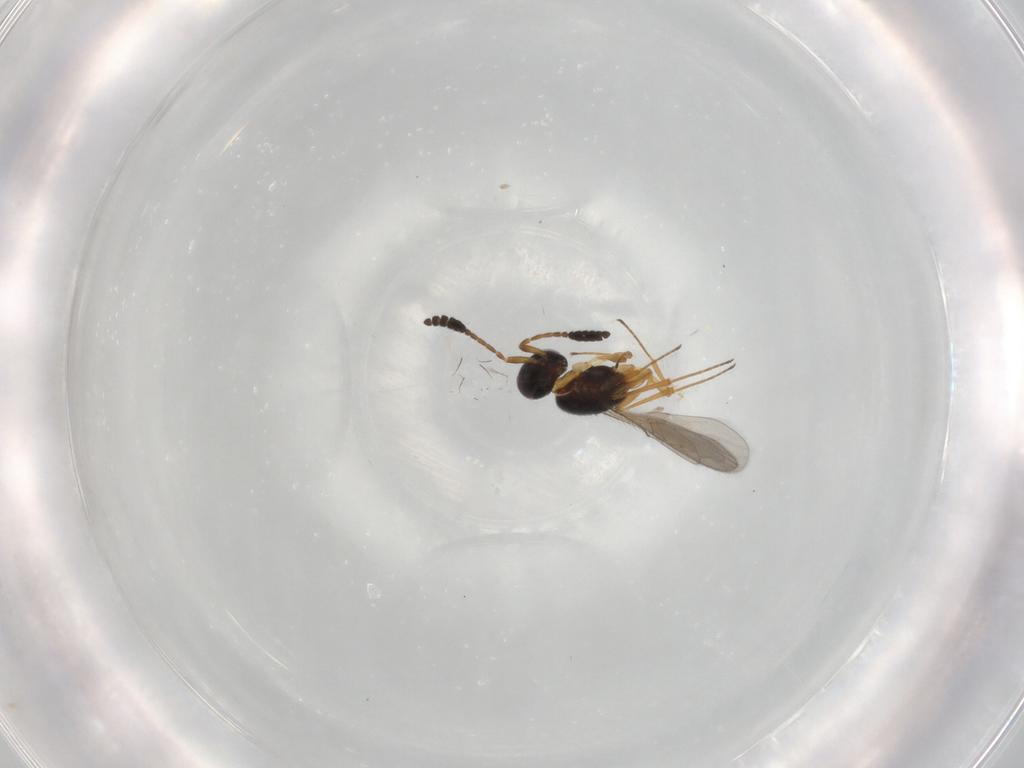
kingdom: Animalia
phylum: Arthropoda
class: Insecta
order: Hymenoptera
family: Scelionidae
